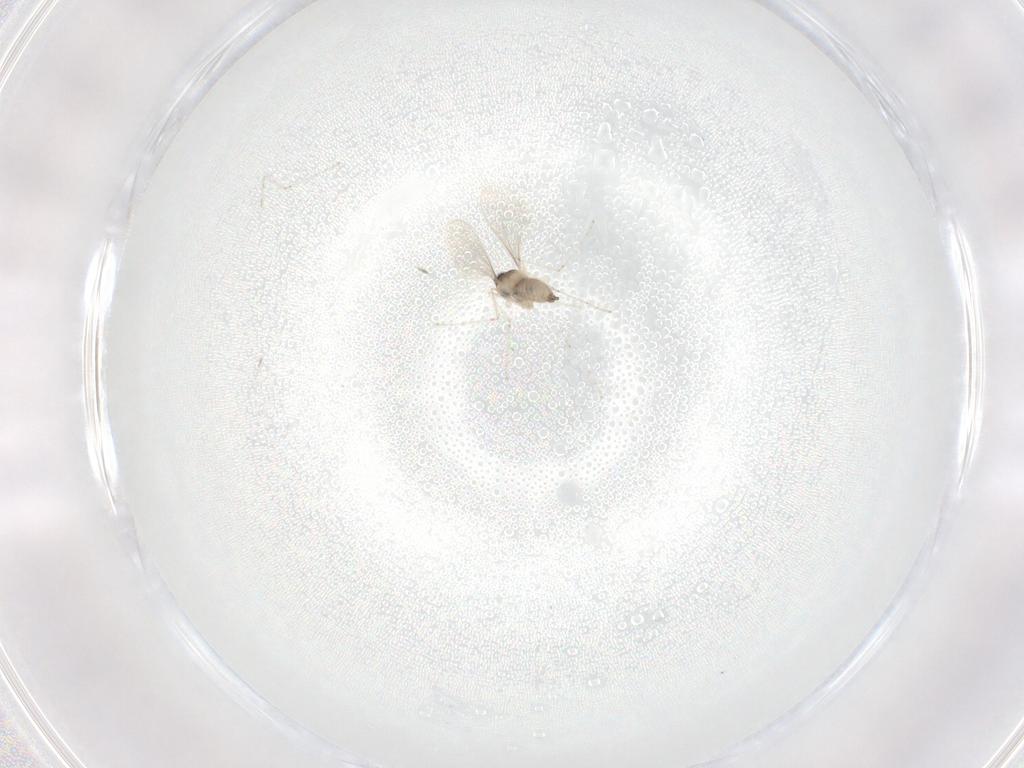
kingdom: Animalia
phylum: Arthropoda
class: Insecta
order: Diptera
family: Cecidomyiidae
